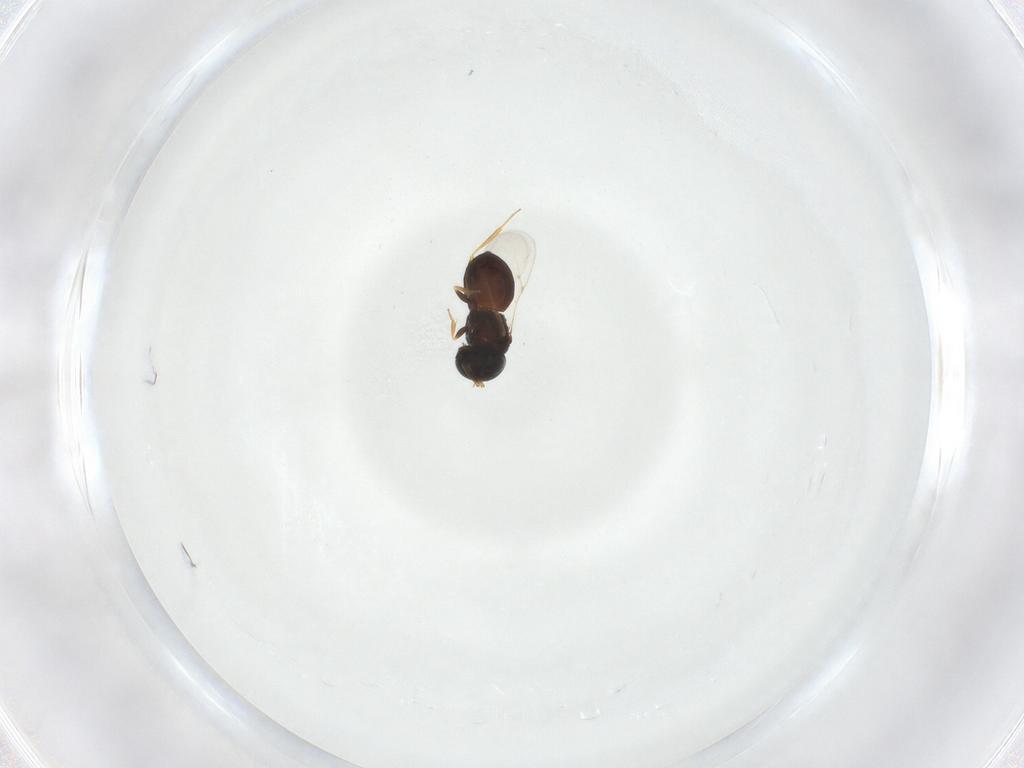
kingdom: Animalia
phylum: Arthropoda
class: Insecta
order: Hymenoptera
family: Scelionidae
